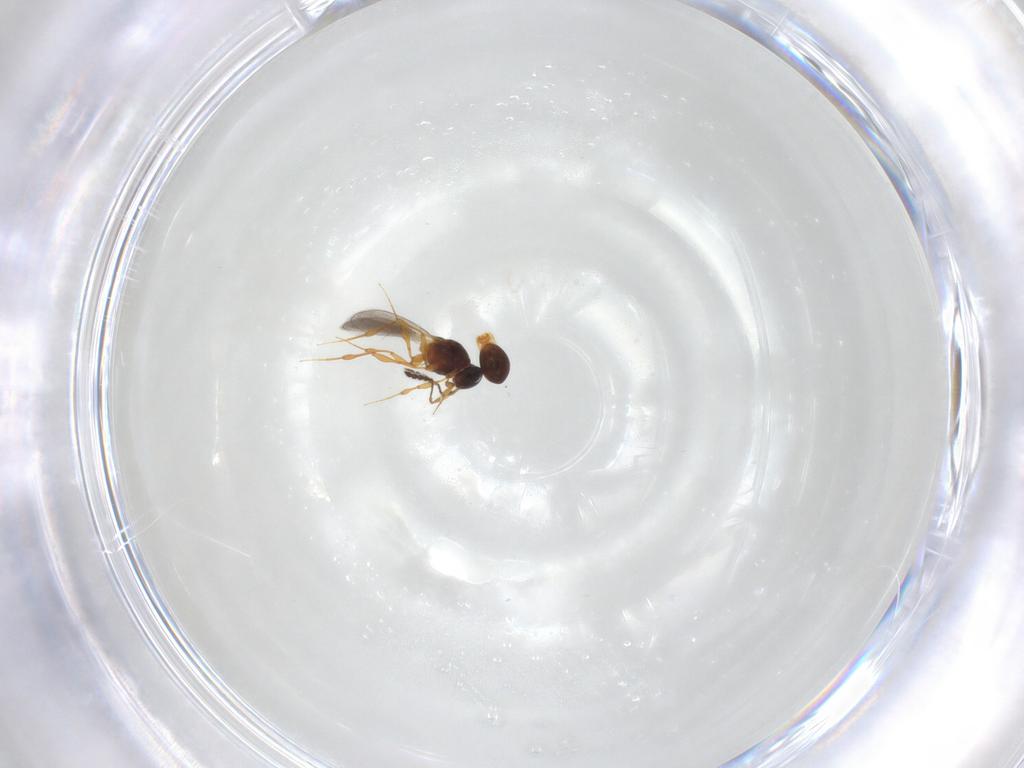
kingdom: Animalia
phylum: Arthropoda
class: Insecta
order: Hymenoptera
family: Platygastridae
